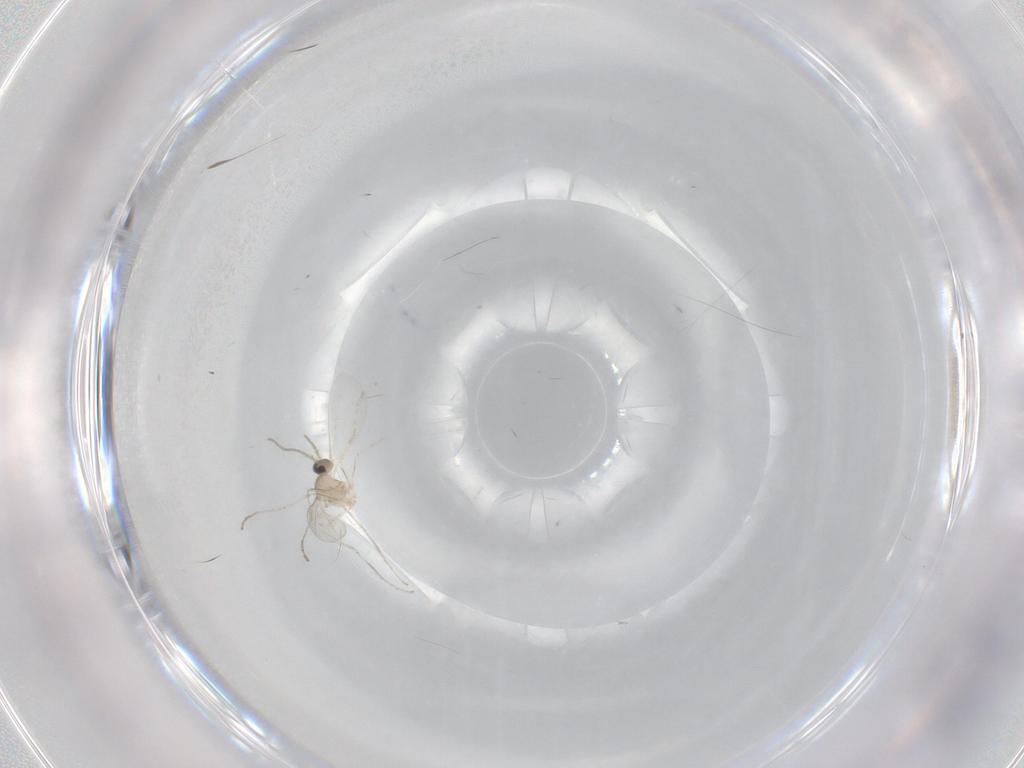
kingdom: Animalia
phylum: Arthropoda
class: Insecta
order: Diptera
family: Cecidomyiidae
